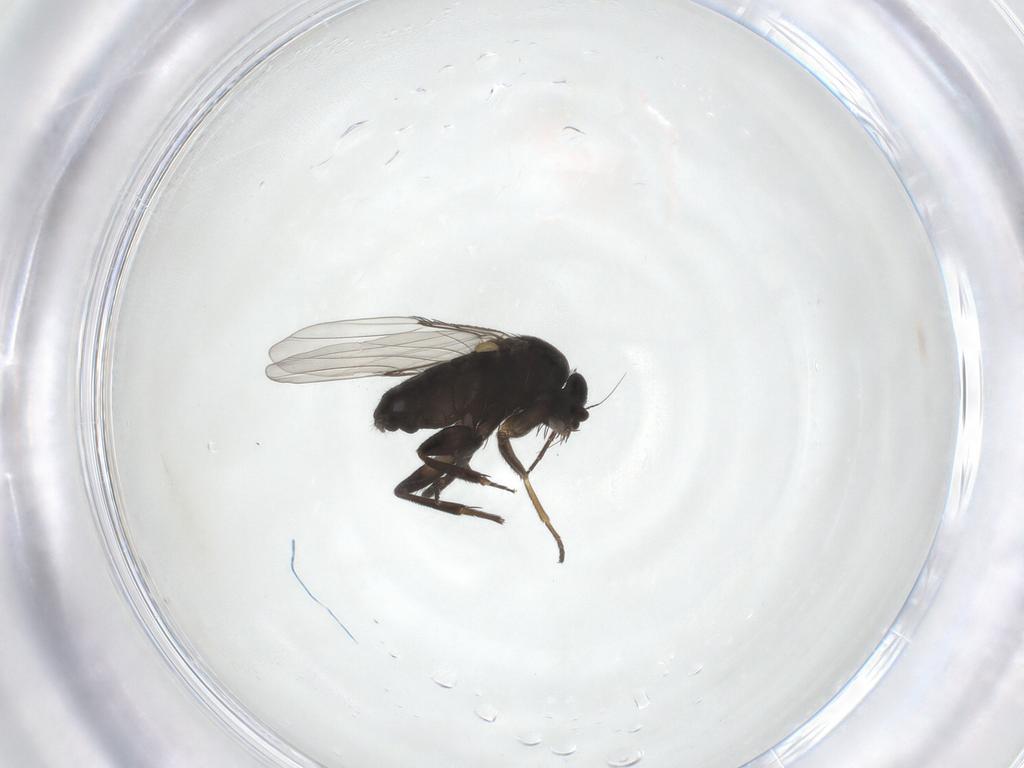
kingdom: Animalia
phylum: Arthropoda
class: Insecta
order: Diptera
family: Phoridae
